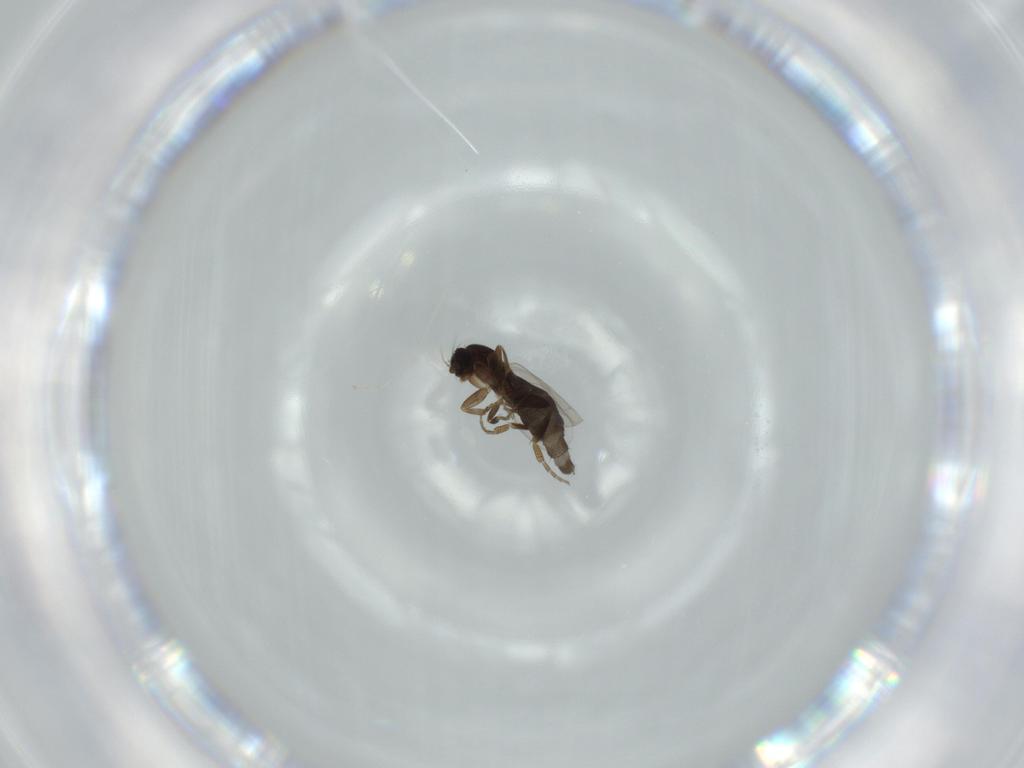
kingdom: Animalia
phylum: Arthropoda
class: Insecta
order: Diptera
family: Phoridae
